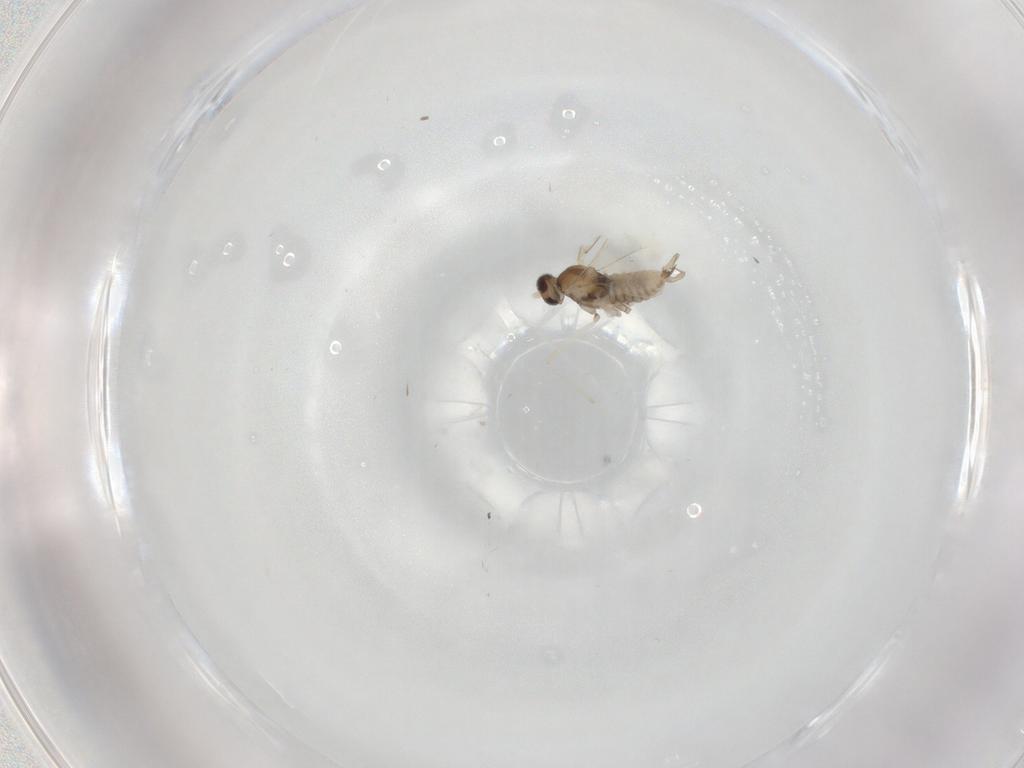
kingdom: Animalia
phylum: Arthropoda
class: Insecta
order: Diptera
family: Cecidomyiidae
